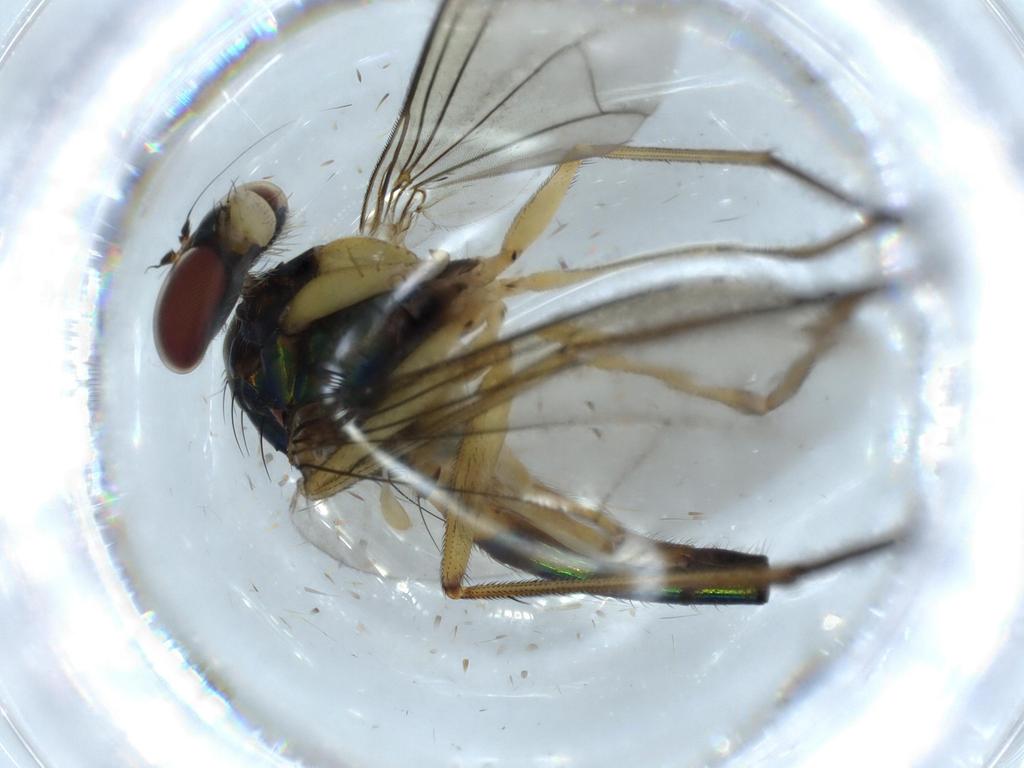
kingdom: Animalia
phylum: Arthropoda
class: Insecta
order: Diptera
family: Dolichopodidae
